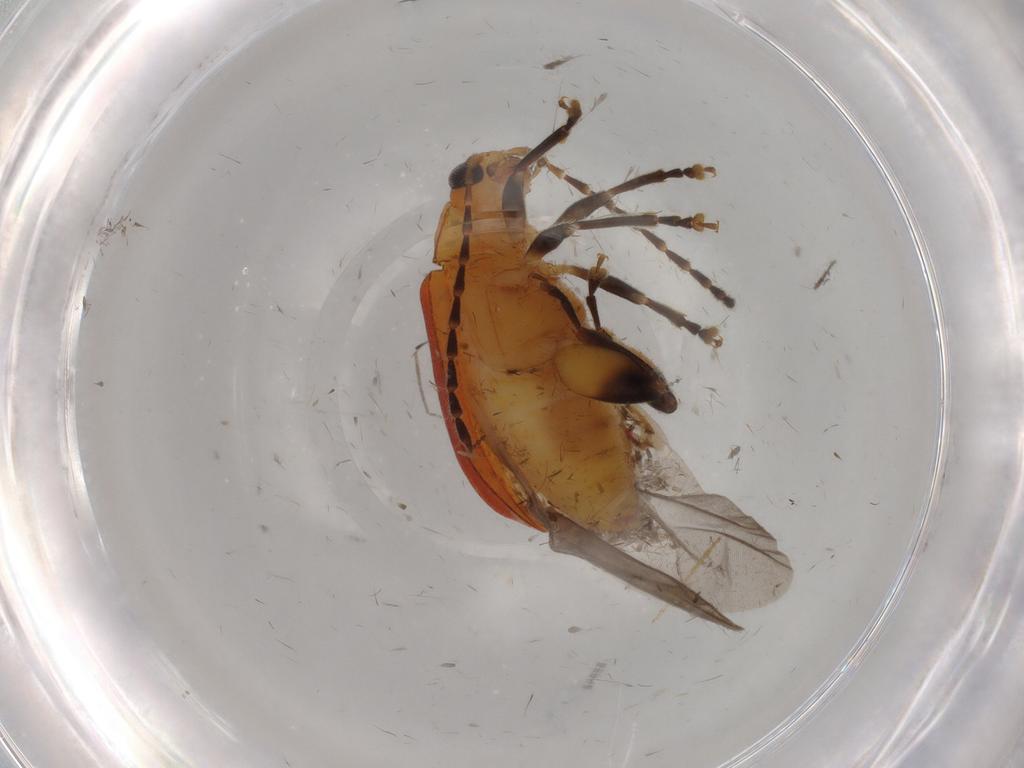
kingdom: Animalia
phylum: Arthropoda
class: Insecta
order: Coleoptera
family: Chrysomelidae
